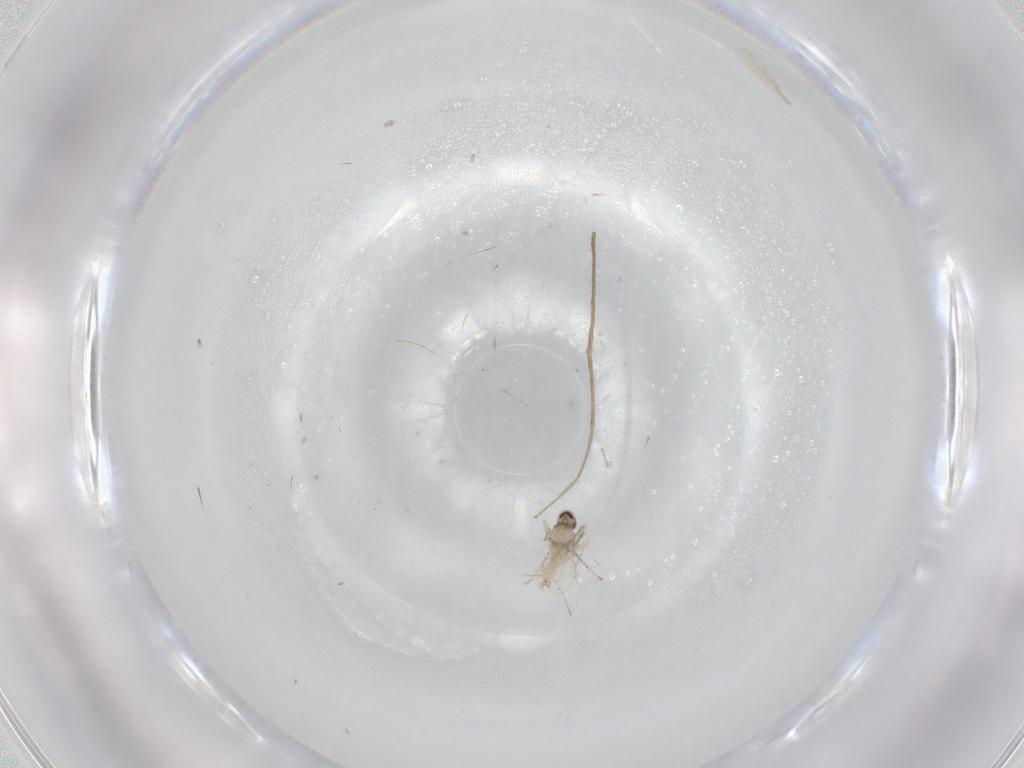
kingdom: Animalia
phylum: Arthropoda
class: Insecta
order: Diptera
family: Cecidomyiidae
